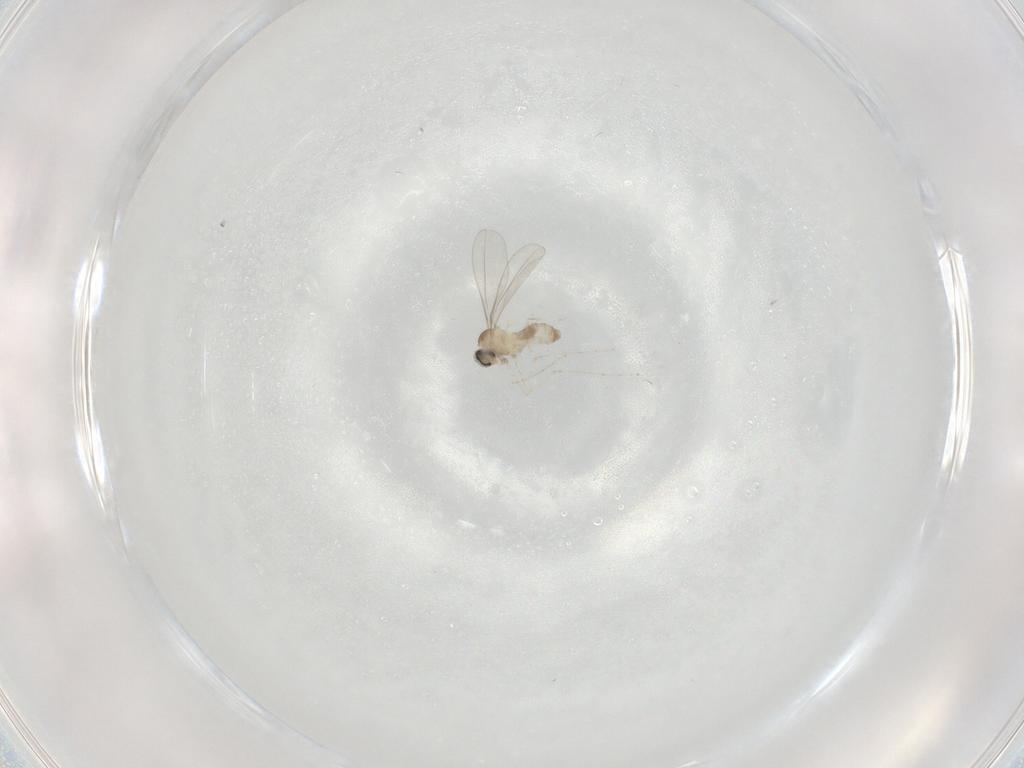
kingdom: Animalia
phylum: Arthropoda
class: Insecta
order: Diptera
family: Cecidomyiidae
